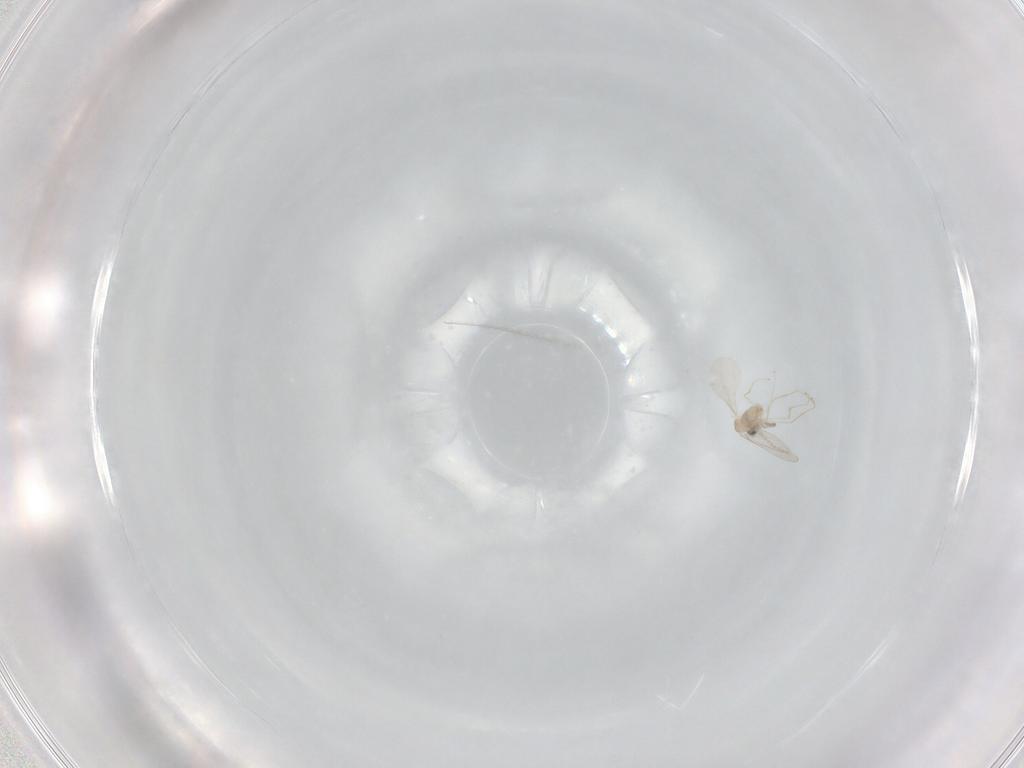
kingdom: Animalia
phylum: Arthropoda
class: Insecta
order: Diptera
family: Cecidomyiidae
